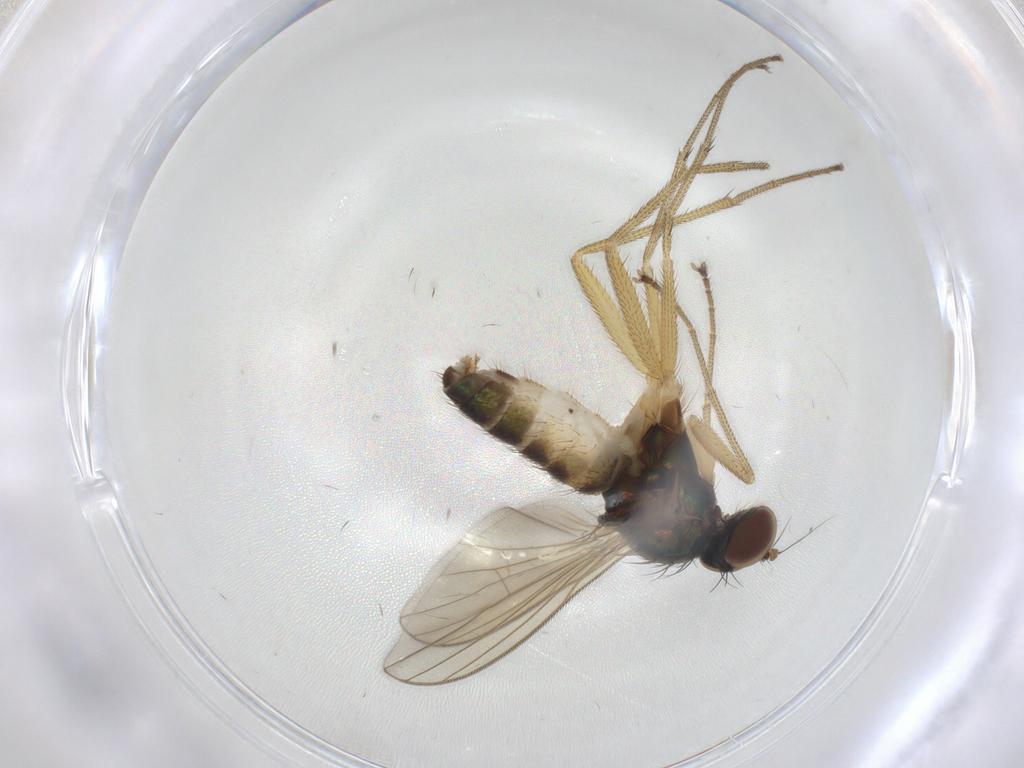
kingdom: Animalia
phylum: Arthropoda
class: Insecta
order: Diptera
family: Dolichopodidae
